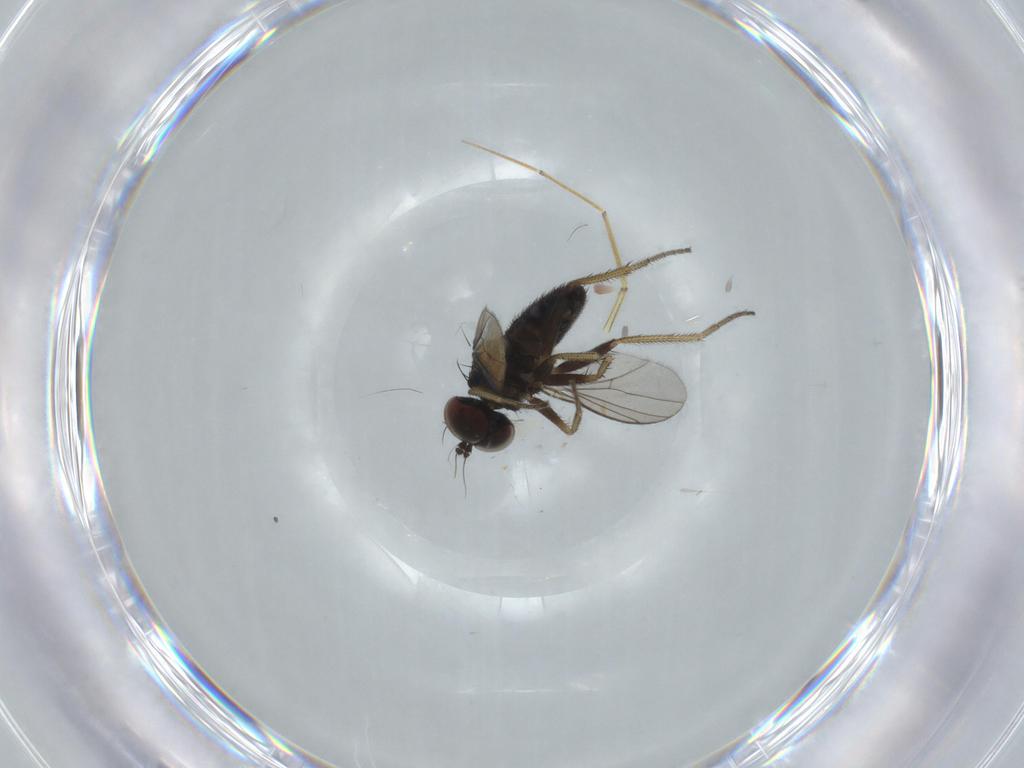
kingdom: Animalia
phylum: Arthropoda
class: Insecta
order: Diptera
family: Dolichopodidae
